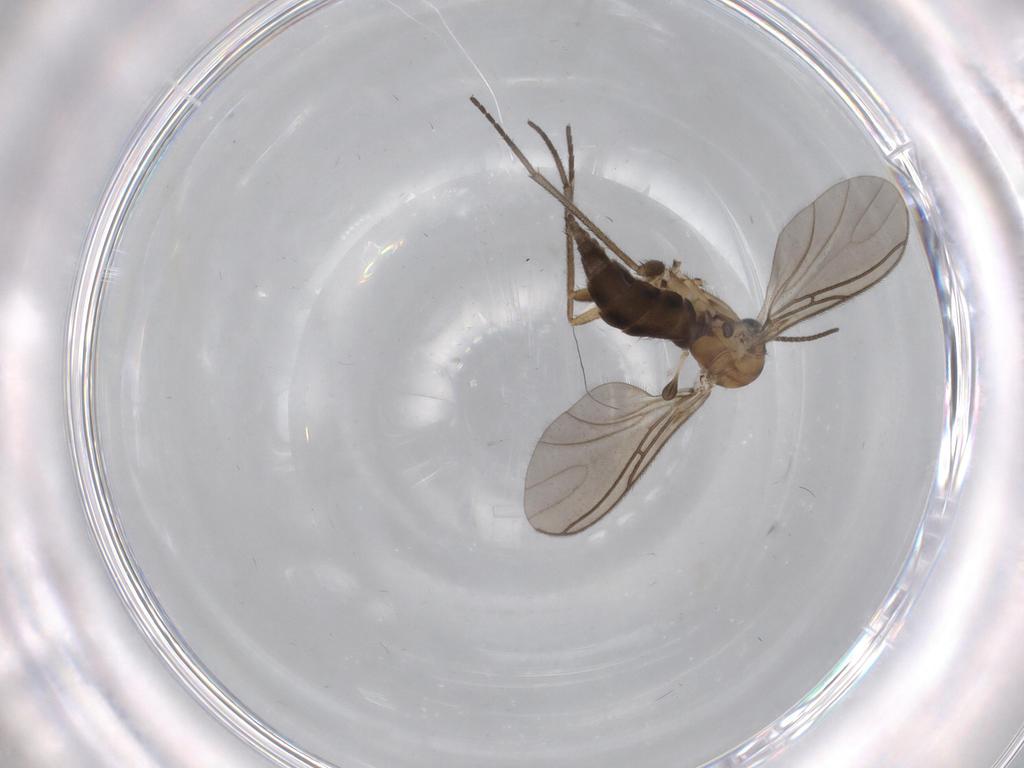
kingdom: Animalia
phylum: Arthropoda
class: Insecta
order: Diptera
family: Sciaridae
